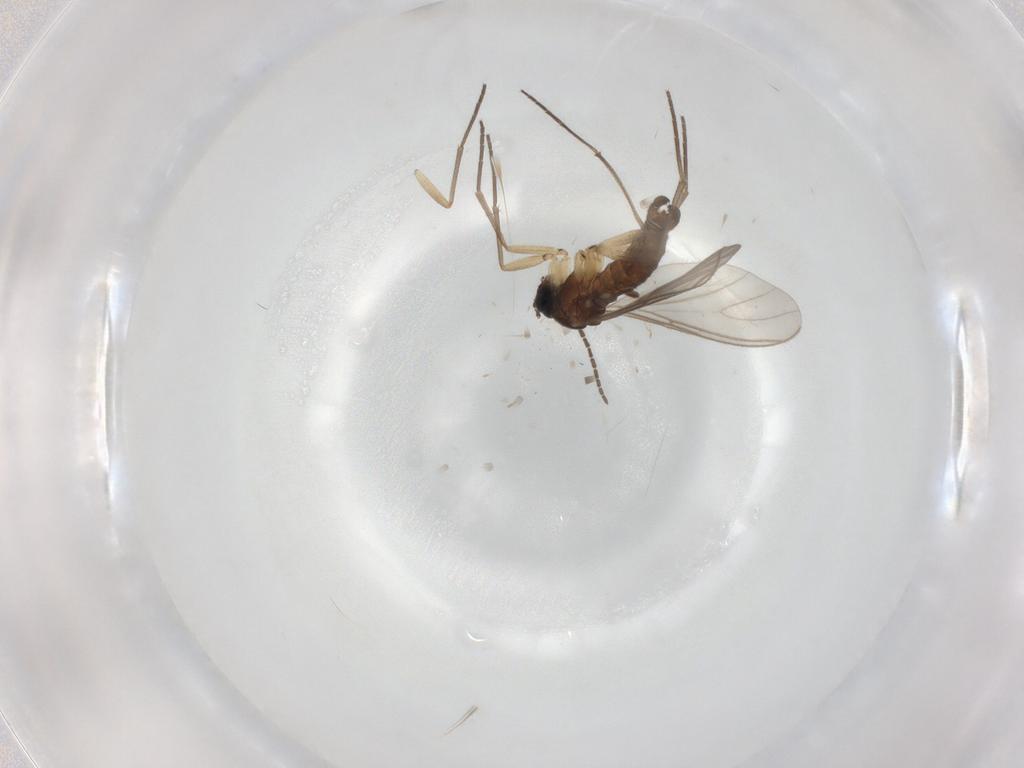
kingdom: Animalia
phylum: Arthropoda
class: Insecta
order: Diptera
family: Sciaridae
